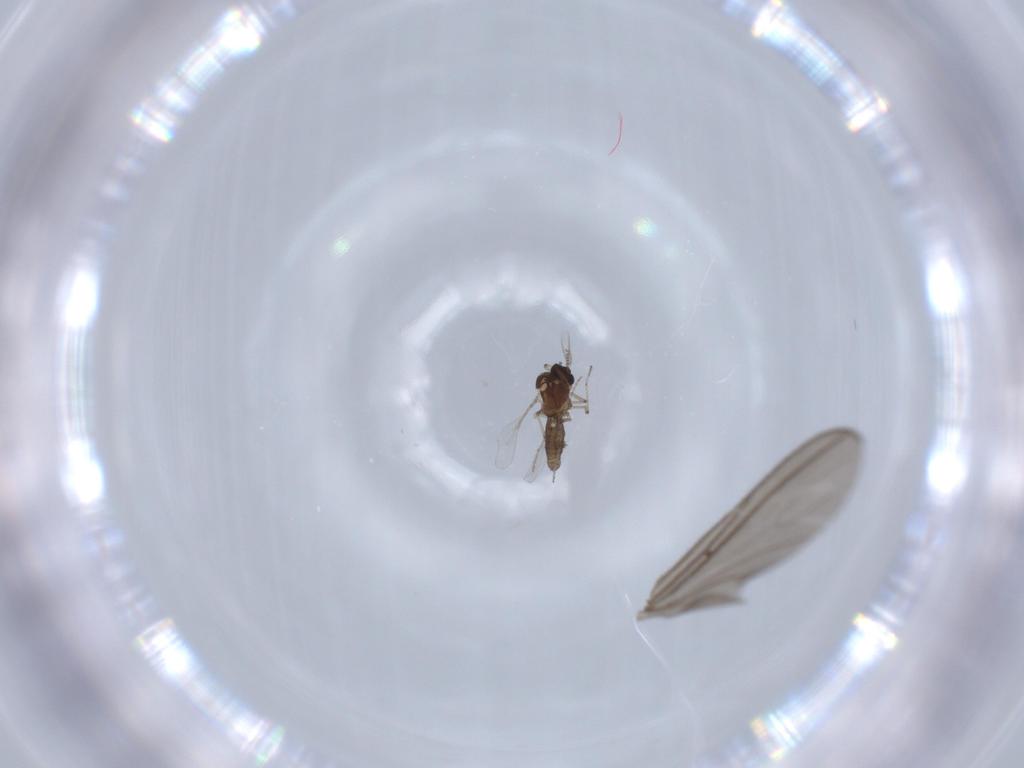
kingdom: Animalia
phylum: Arthropoda
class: Insecta
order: Diptera
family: Ceratopogonidae
